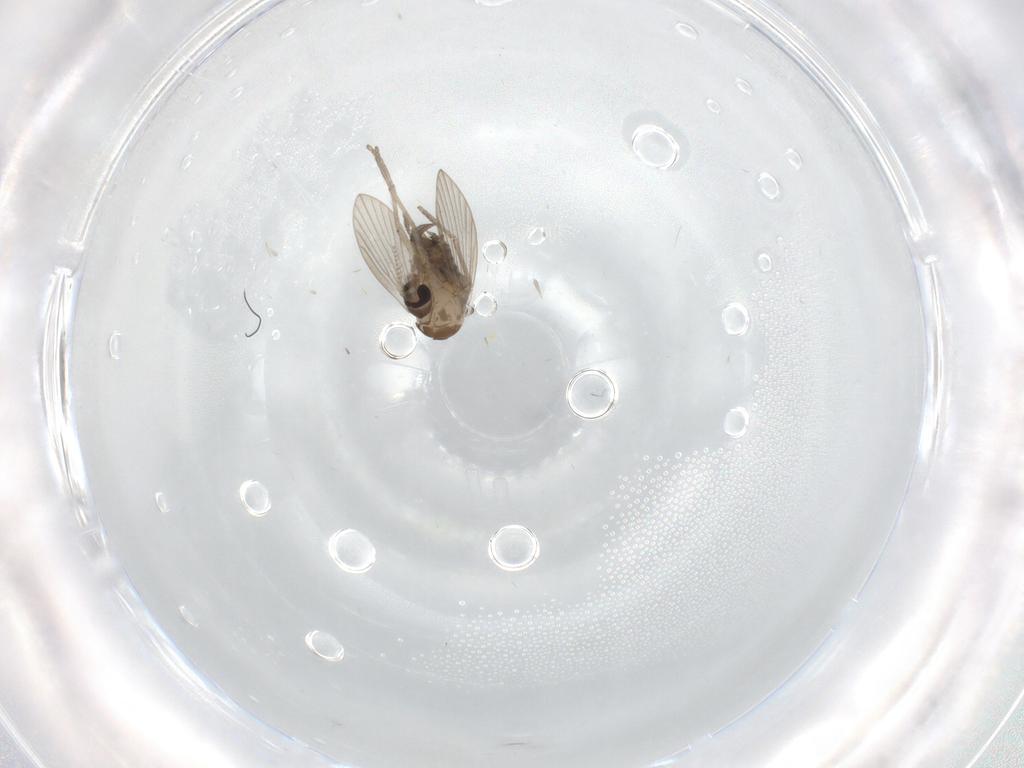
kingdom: Animalia
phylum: Arthropoda
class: Insecta
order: Diptera
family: Psychodidae
